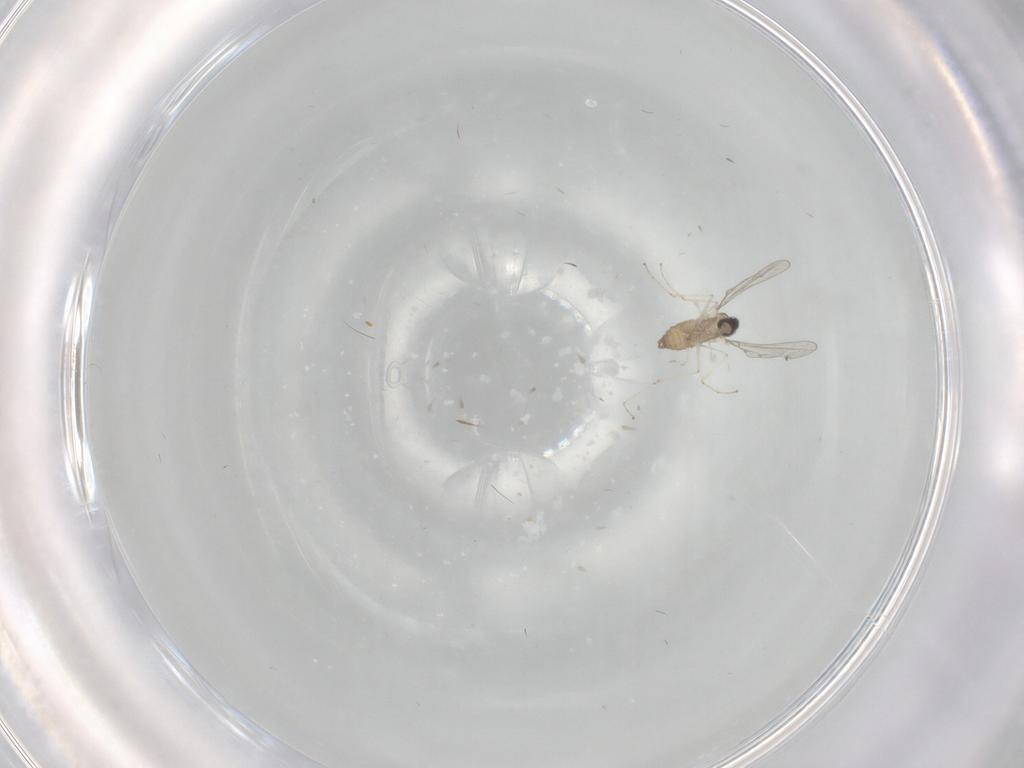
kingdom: Animalia
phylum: Arthropoda
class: Insecta
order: Diptera
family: Cecidomyiidae
